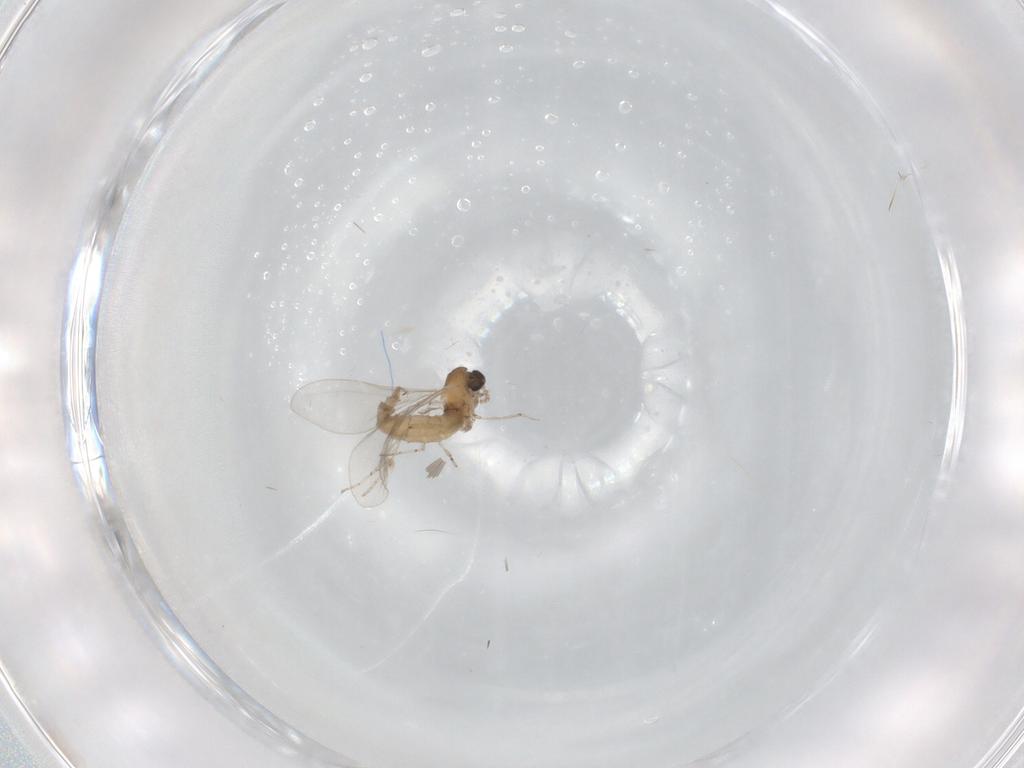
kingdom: Animalia
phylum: Arthropoda
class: Insecta
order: Diptera
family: Cecidomyiidae
